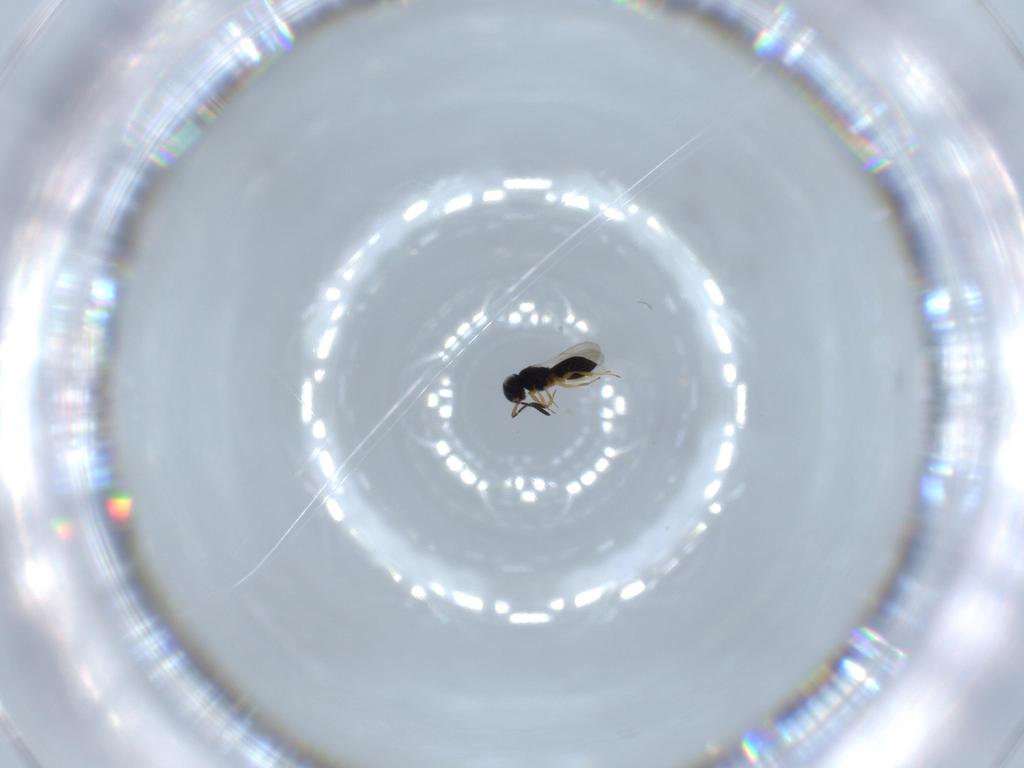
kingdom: Animalia
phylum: Arthropoda
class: Insecta
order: Hymenoptera
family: Scelionidae
